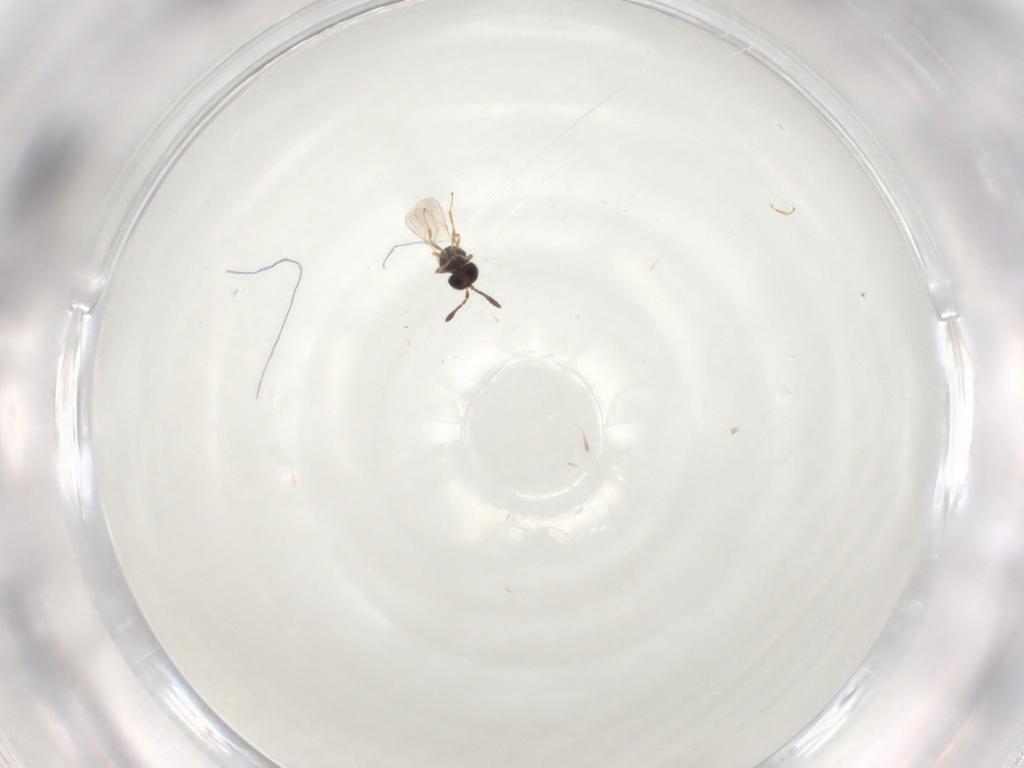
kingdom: Animalia
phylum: Arthropoda
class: Insecta
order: Hymenoptera
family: Scelionidae
